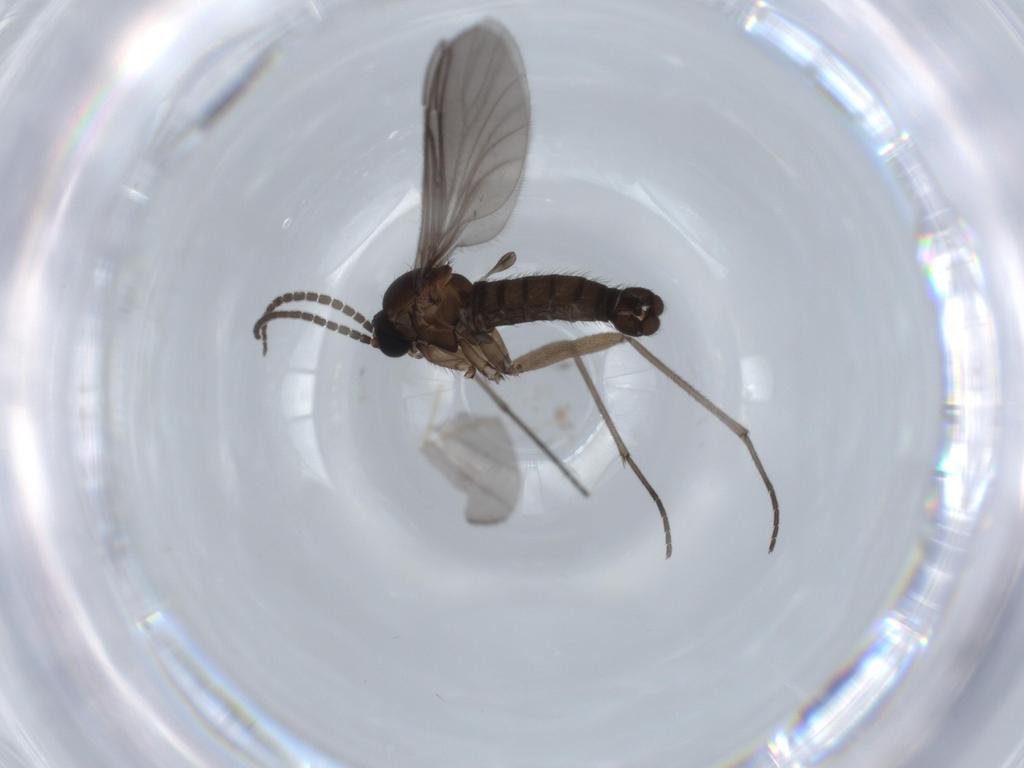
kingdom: Animalia
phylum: Arthropoda
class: Insecta
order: Diptera
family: Sciaridae
